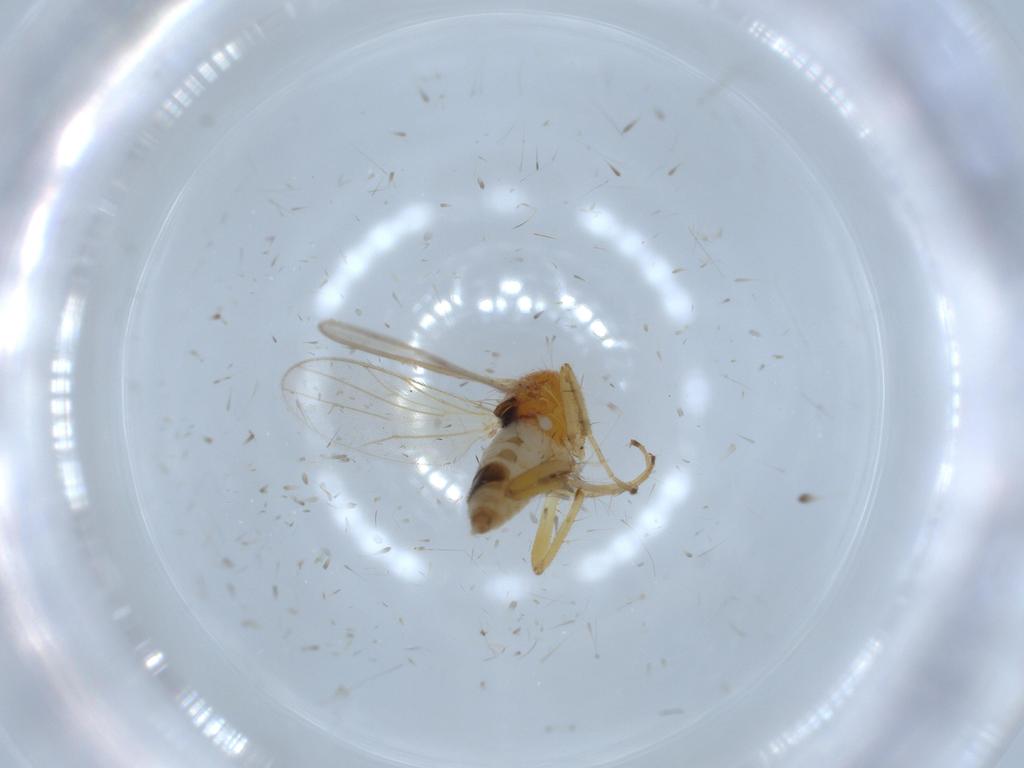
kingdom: Animalia
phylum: Arthropoda
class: Insecta
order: Diptera
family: Hybotidae
